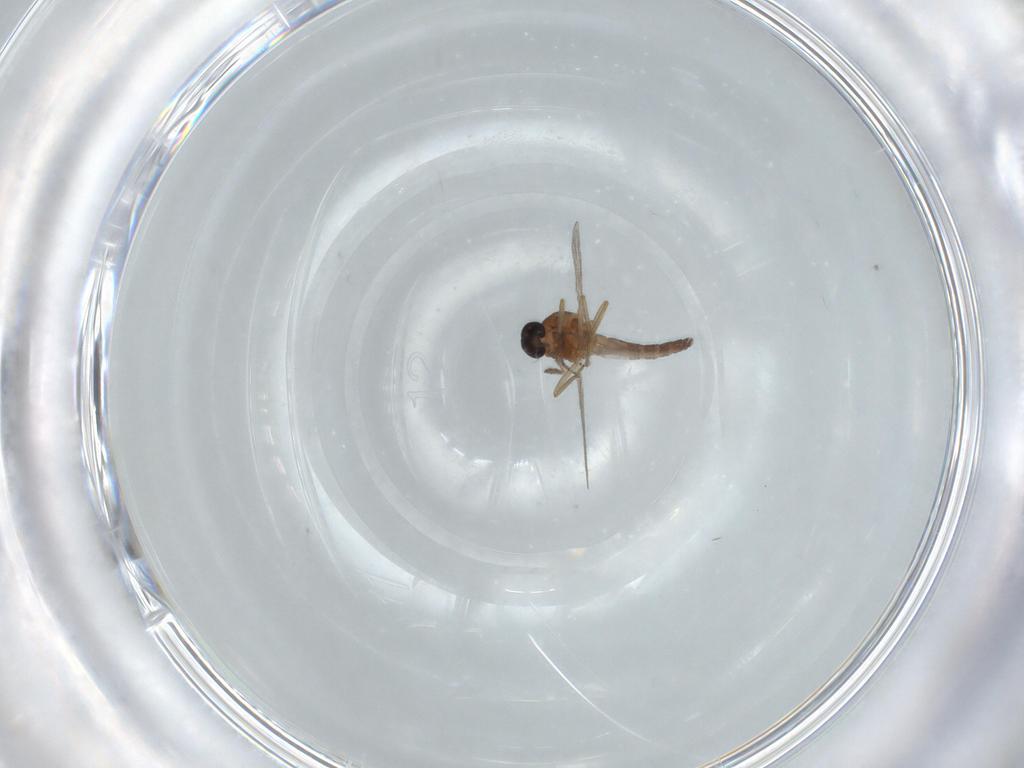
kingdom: Animalia
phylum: Arthropoda
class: Insecta
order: Diptera
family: Ceratopogonidae
